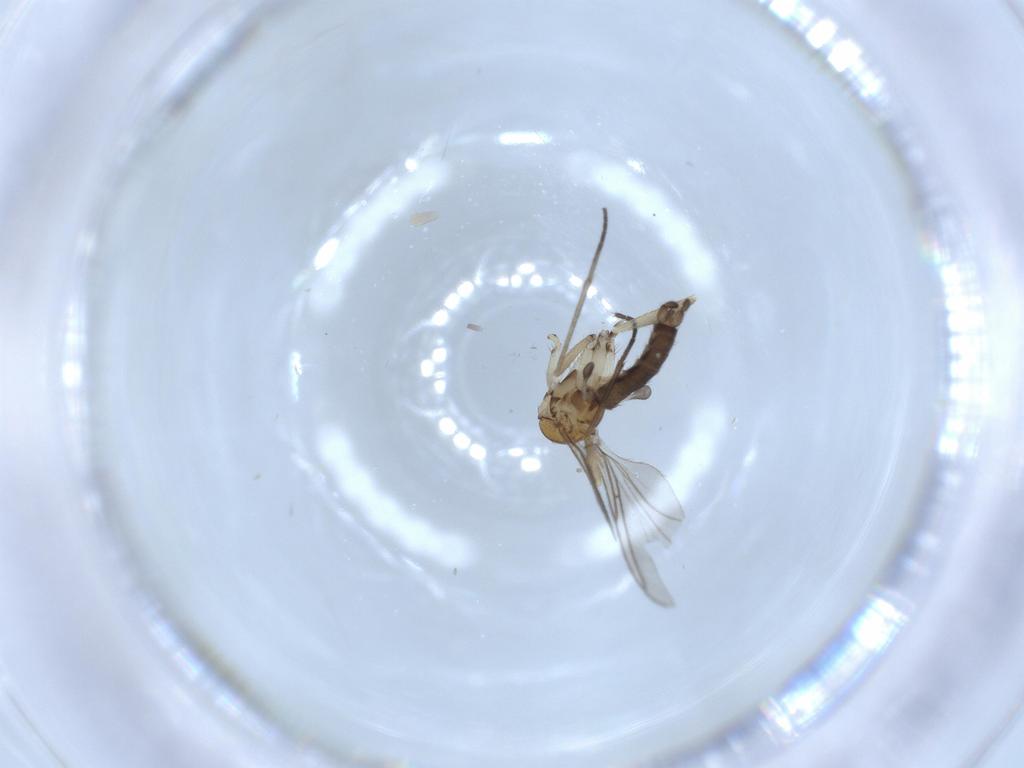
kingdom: Animalia
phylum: Arthropoda
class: Insecta
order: Diptera
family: Sciaridae
